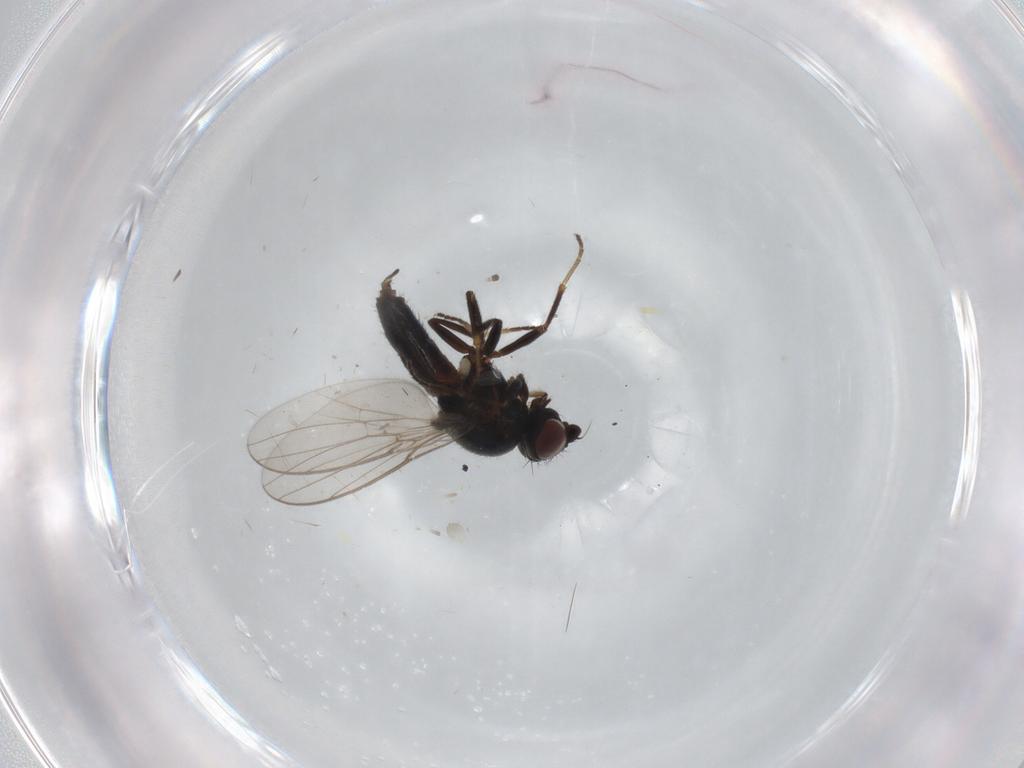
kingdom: Animalia
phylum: Arthropoda
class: Insecta
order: Diptera
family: Chloropidae
